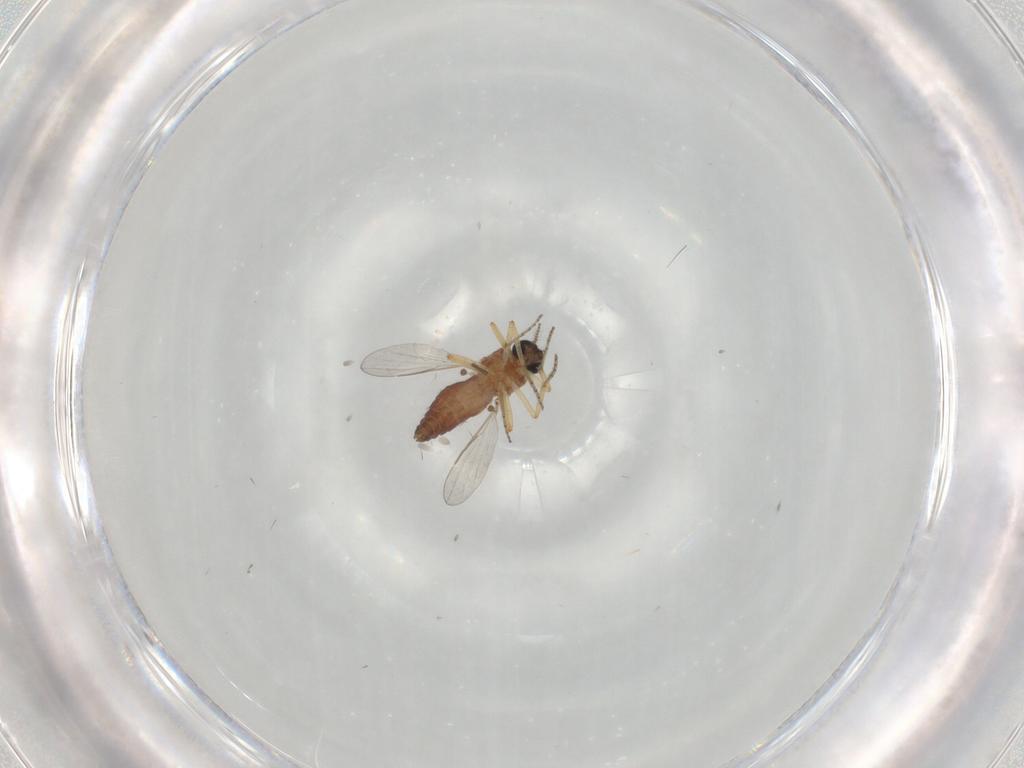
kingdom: Animalia
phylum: Arthropoda
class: Insecta
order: Diptera
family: Ceratopogonidae
